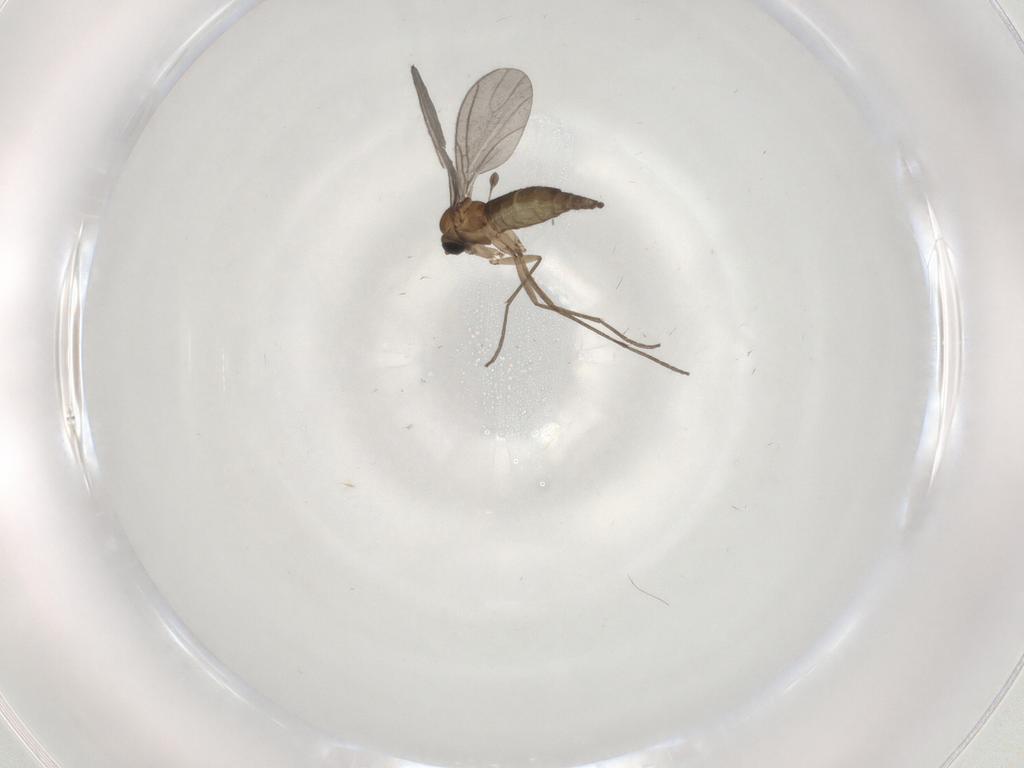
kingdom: Animalia
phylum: Arthropoda
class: Insecta
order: Diptera
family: Sciaridae
